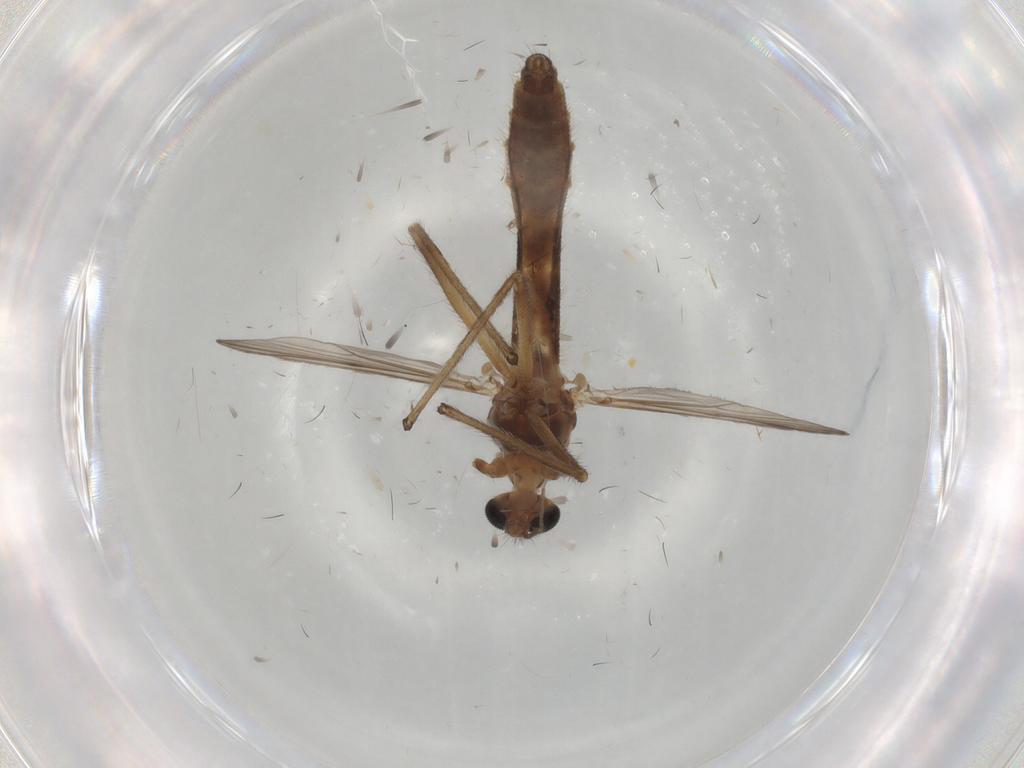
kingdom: Animalia
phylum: Arthropoda
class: Insecta
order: Diptera
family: Chironomidae
